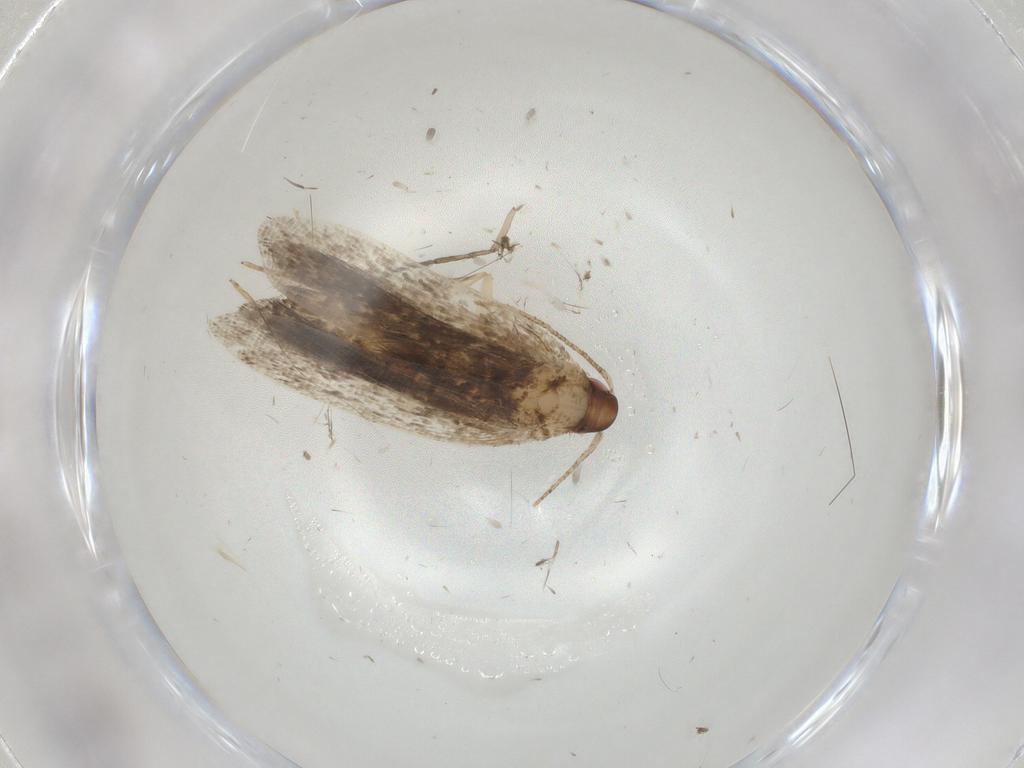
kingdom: Animalia
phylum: Arthropoda
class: Insecta
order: Lepidoptera
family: Gelechiidae
